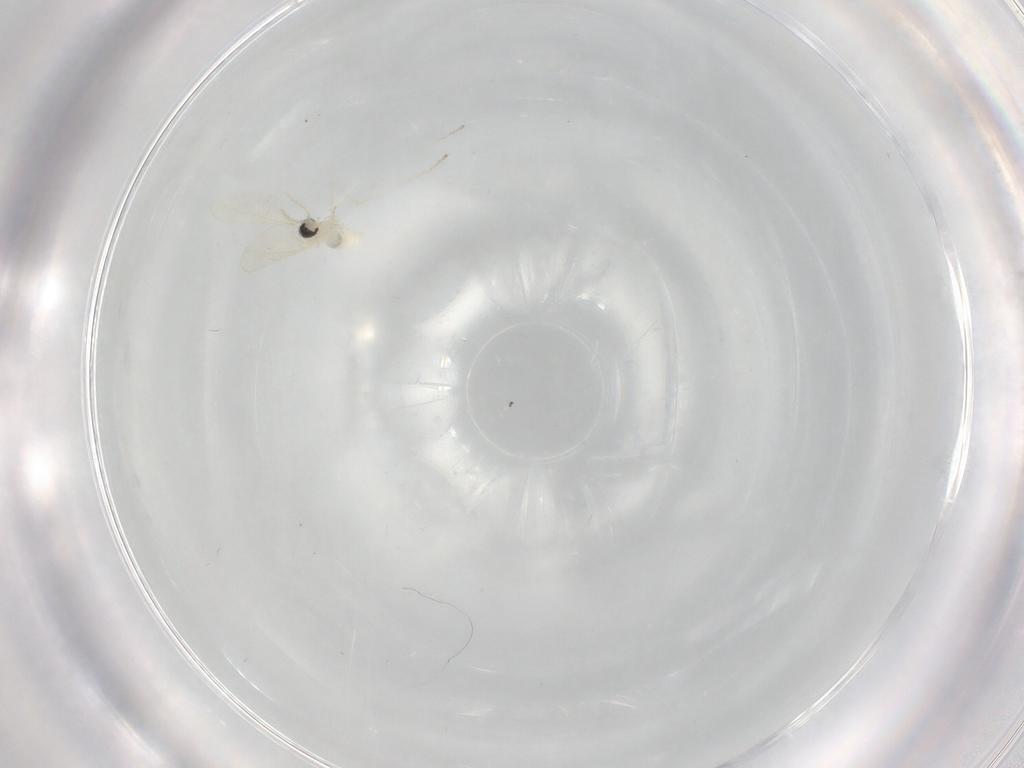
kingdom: Animalia
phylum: Arthropoda
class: Insecta
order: Diptera
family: Cecidomyiidae
